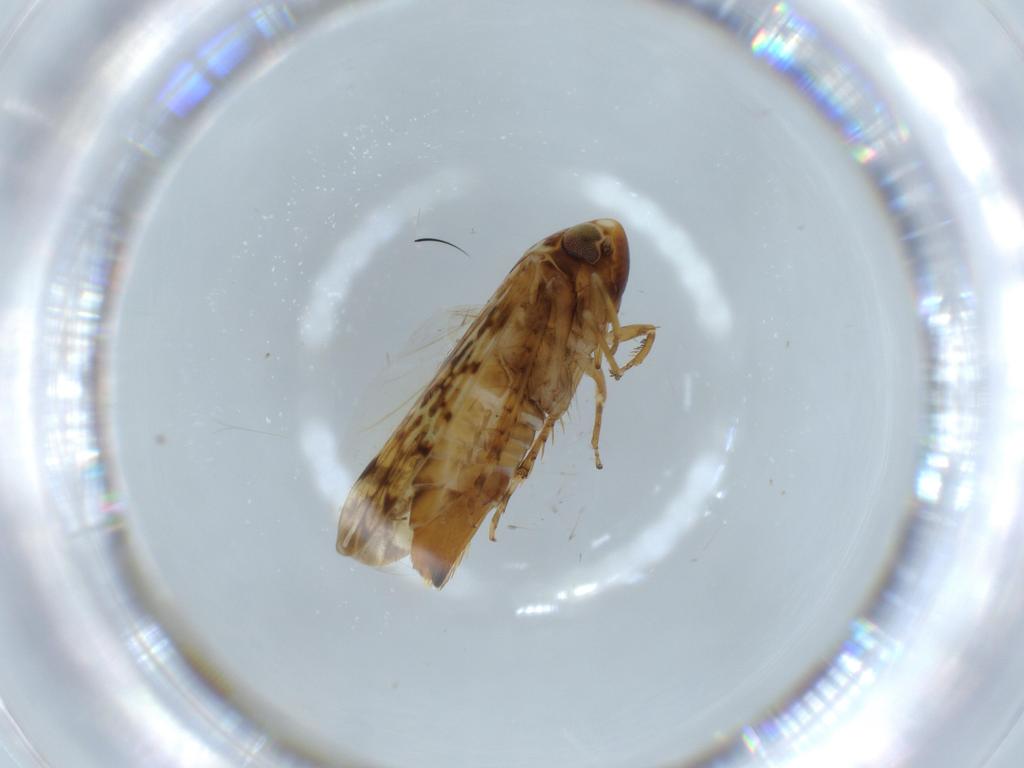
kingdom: Animalia
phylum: Arthropoda
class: Insecta
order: Hemiptera
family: Cicadellidae
